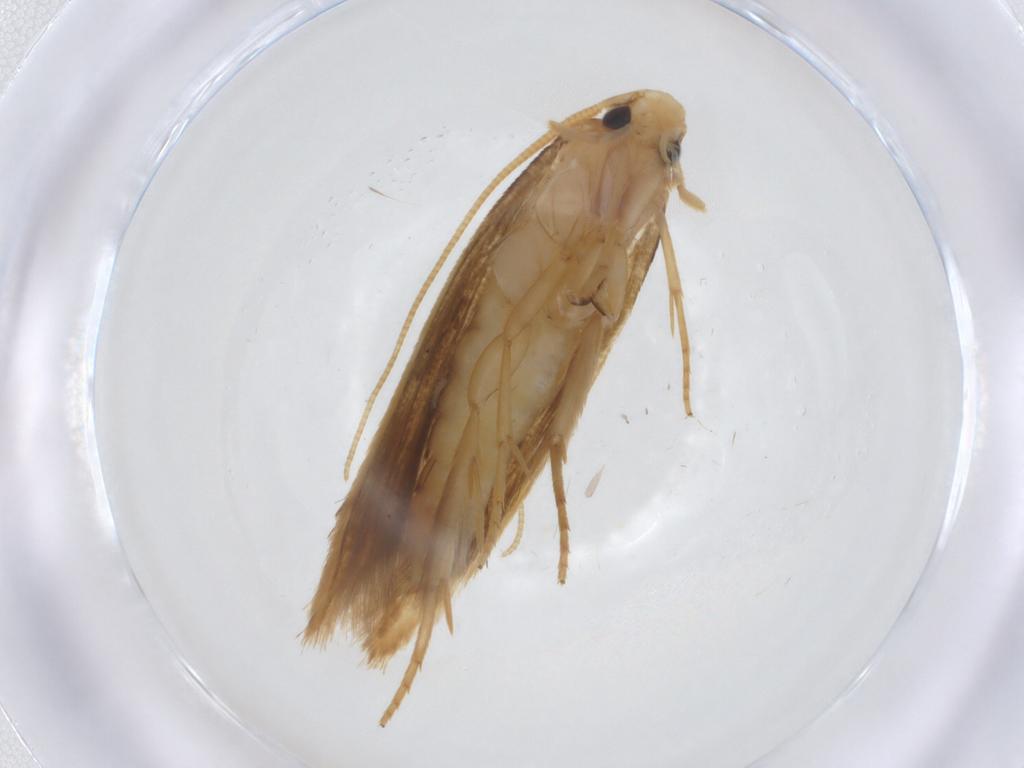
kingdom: Animalia
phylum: Arthropoda
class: Insecta
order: Lepidoptera
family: Tineidae
